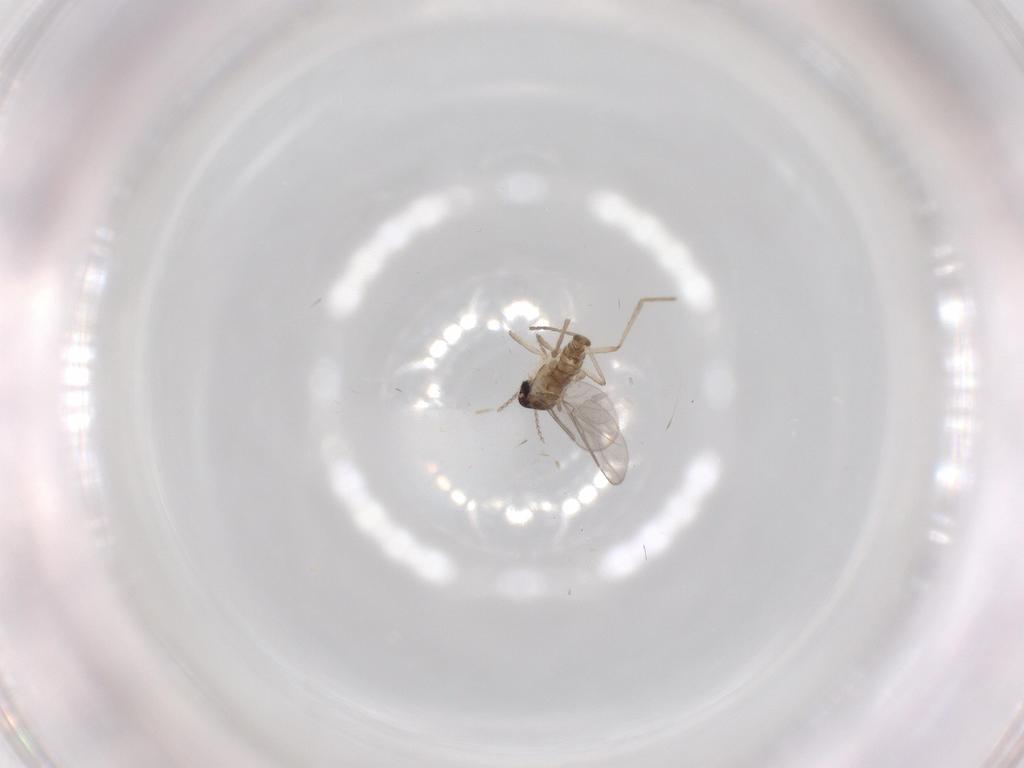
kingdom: Animalia
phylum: Arthropoda
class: Insecta
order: Diptera
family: Cecidomyiidae
